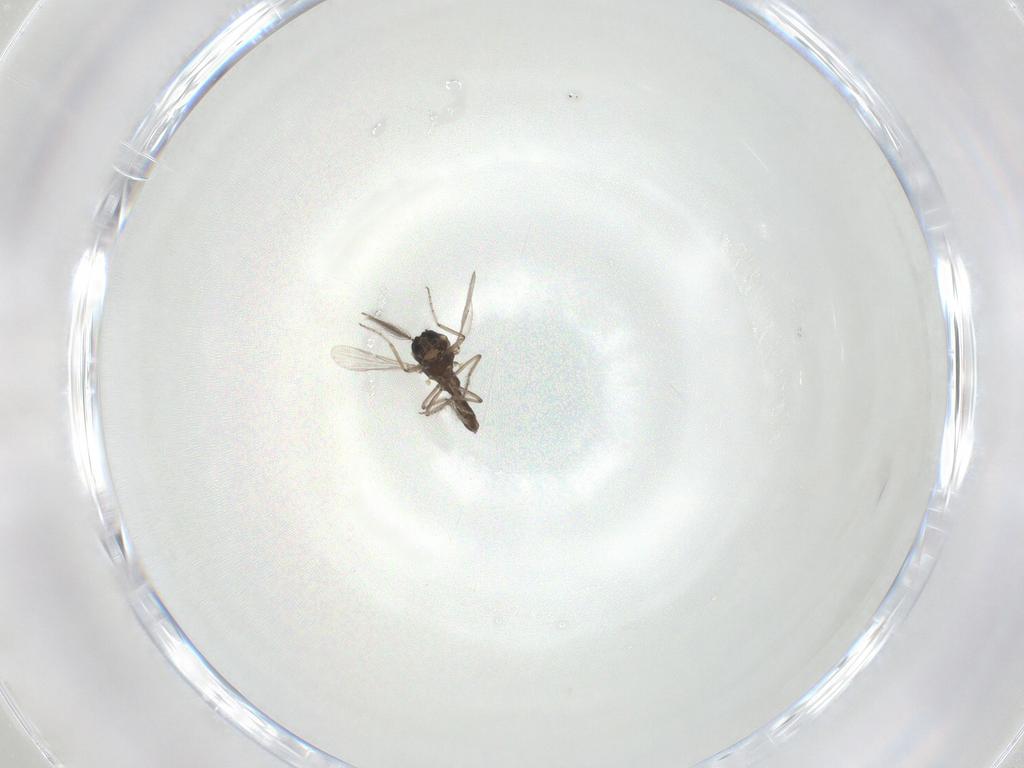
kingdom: Animalia
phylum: Arthropoda
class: Insecta
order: Diptera
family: Ceratopogonidae
